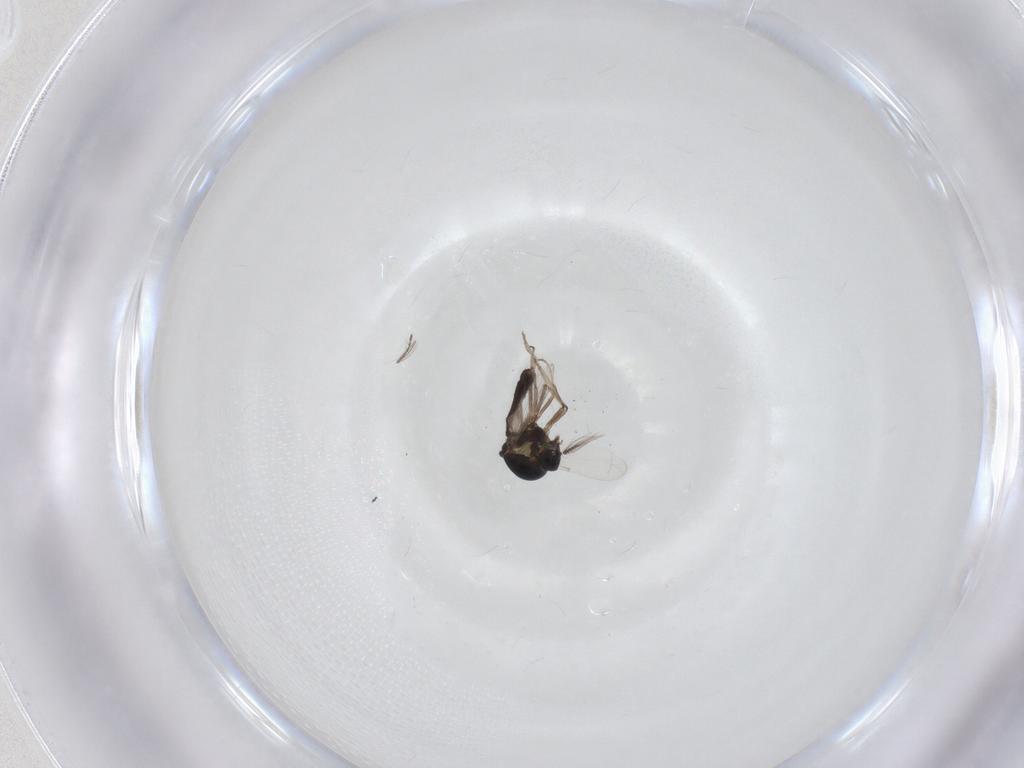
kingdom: Animalia
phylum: Arthropoda
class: Insecta
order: Diptera
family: Ceratopogonidae
